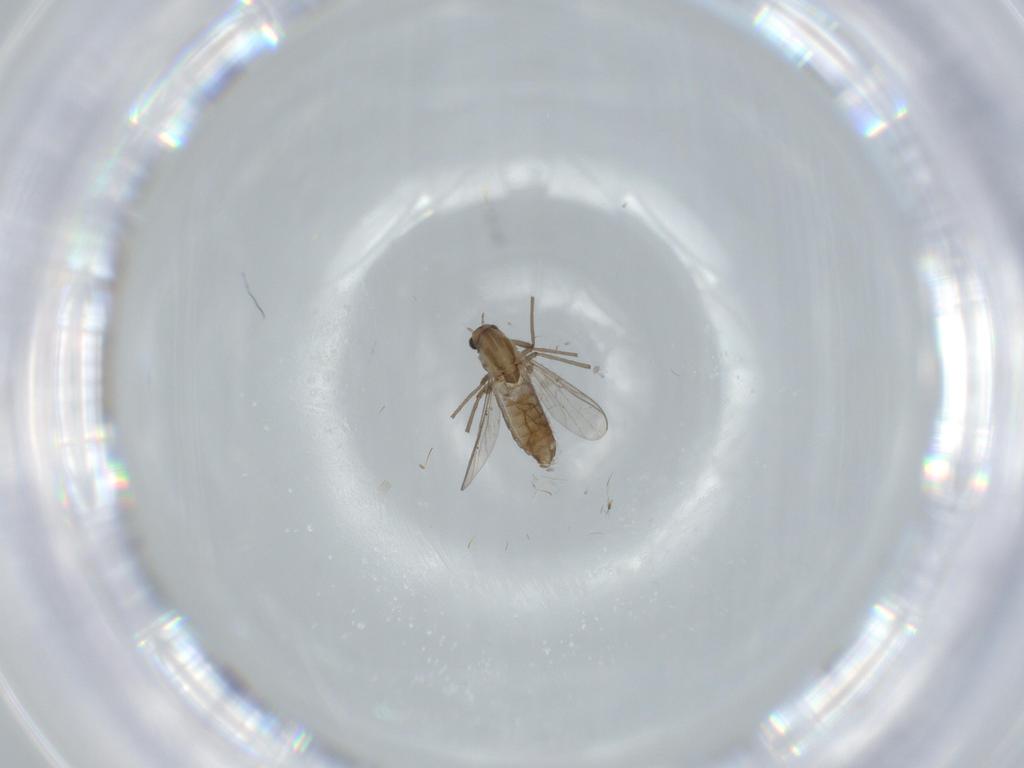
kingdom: Animalia
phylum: Arthropoda
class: Insecta
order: Diptera
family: Chironomidae
